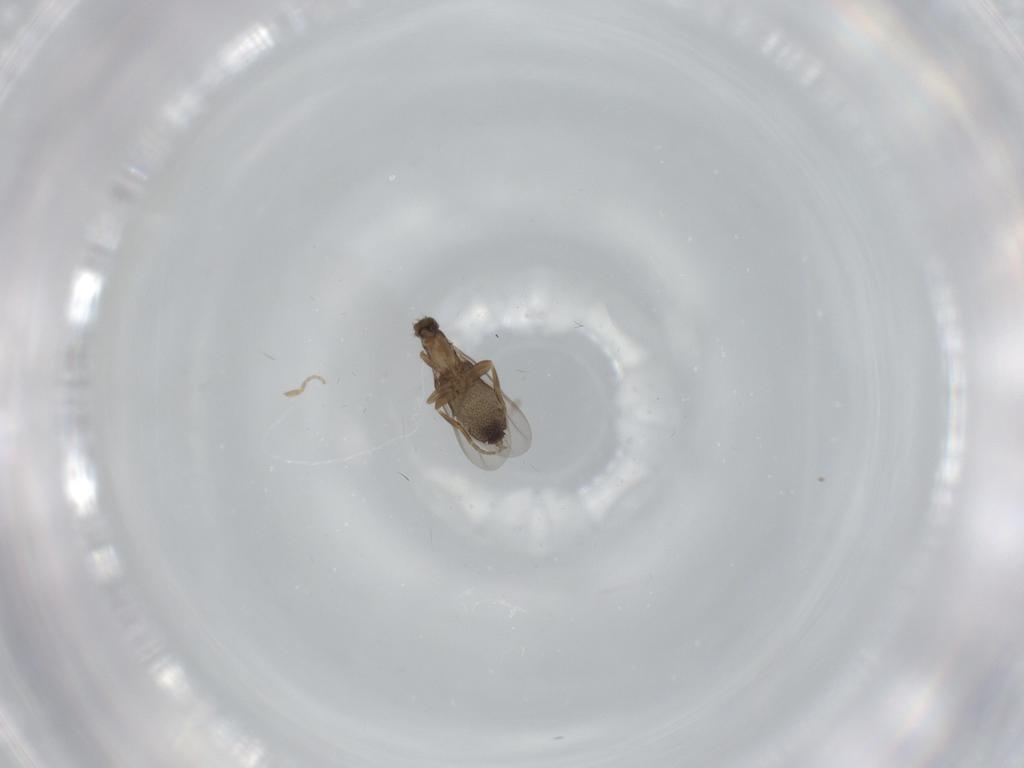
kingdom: Animalia
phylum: Arthropoda
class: Insecta
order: Diptera
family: Phoridae
